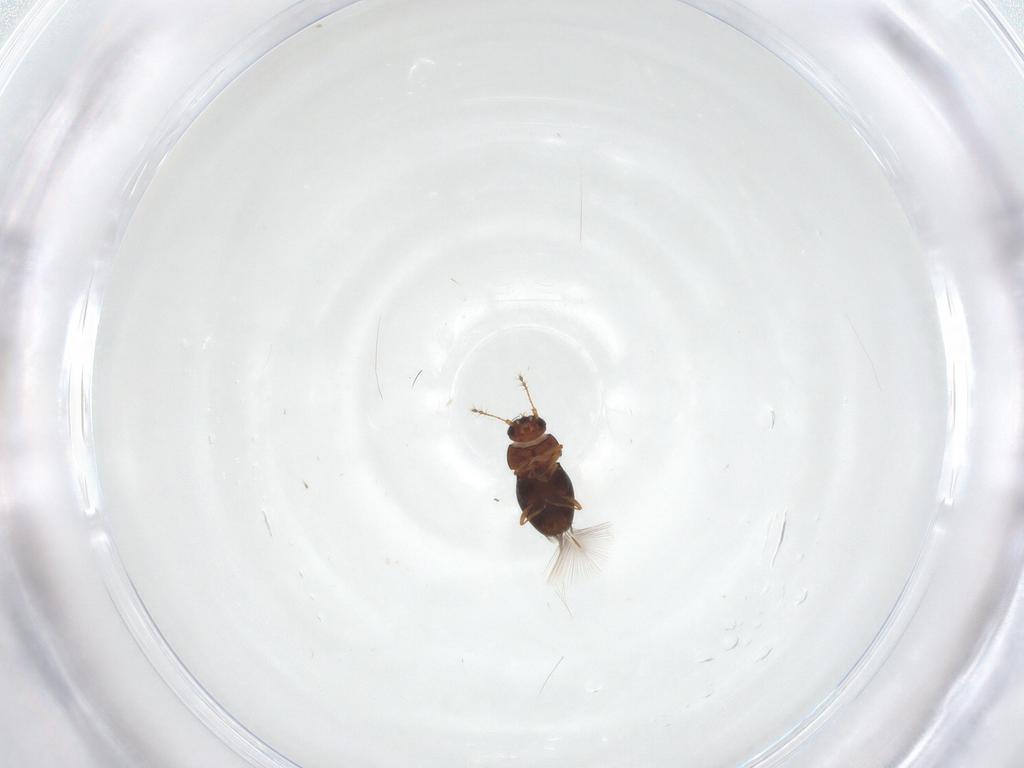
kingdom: Animalia
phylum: Arthropoda
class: Insecta
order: Coleoptera
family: Ptiliidae
